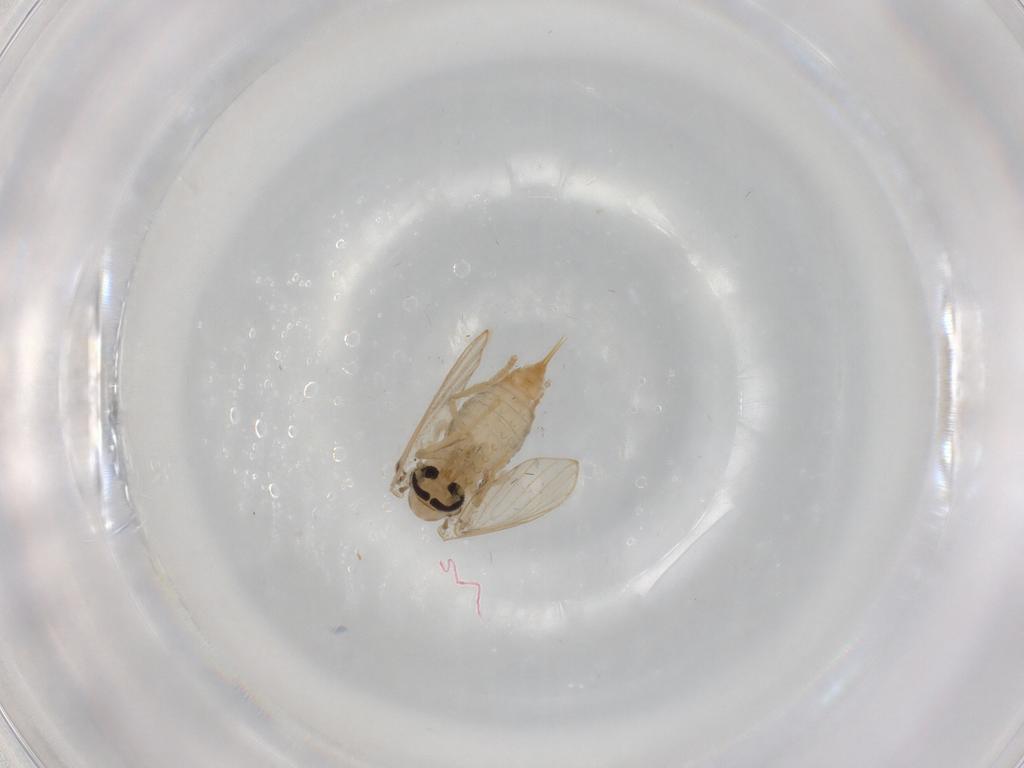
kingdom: Animalia
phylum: Arthropoda
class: Insecta
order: Diptera
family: Psychodidae
